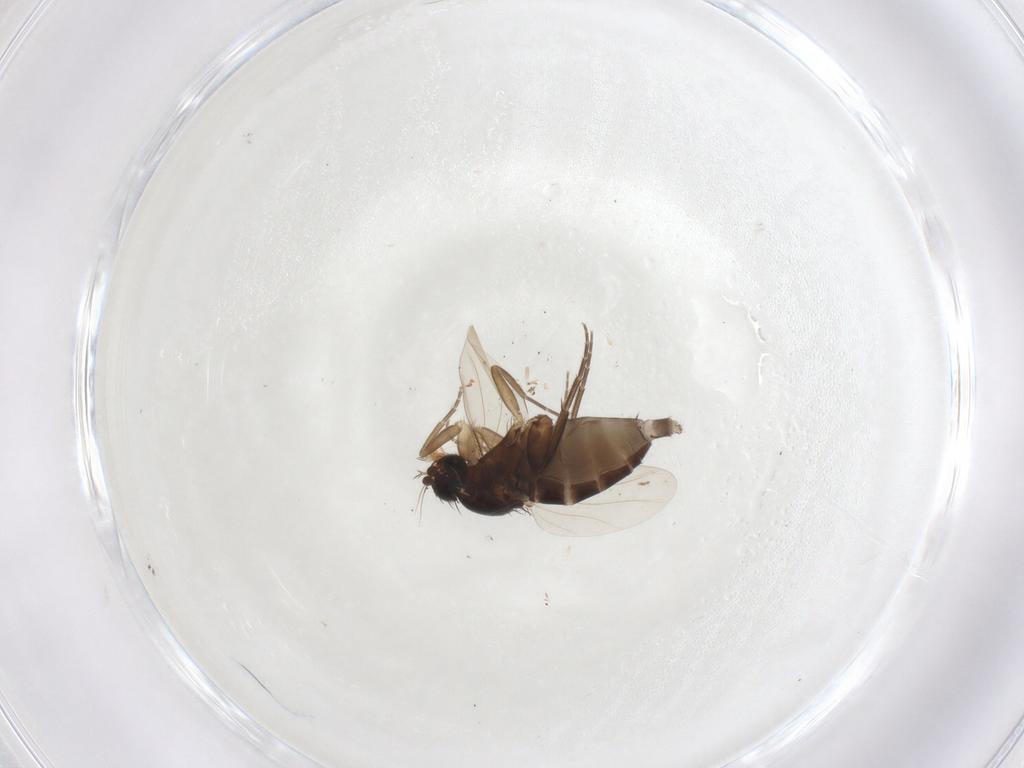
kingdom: Animalia
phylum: Arthropoda
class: Insecta
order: Diptera
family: Phoridae
